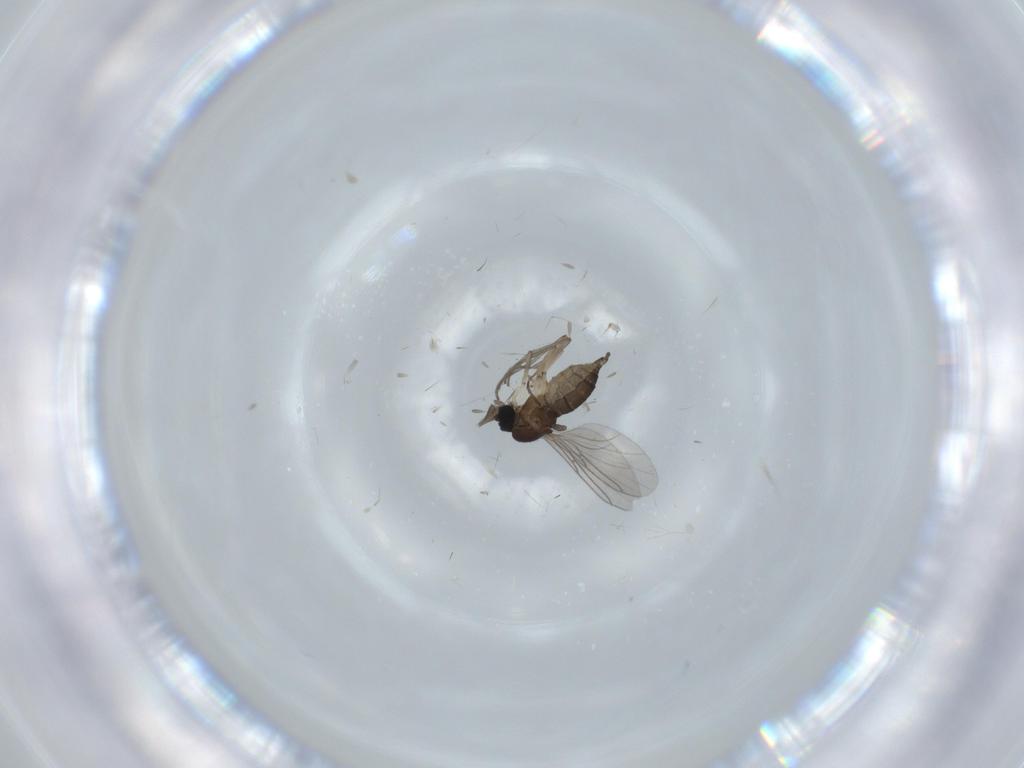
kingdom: Animalia
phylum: Arthropoda
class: Insecta
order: Diptera
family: Sciaridae
